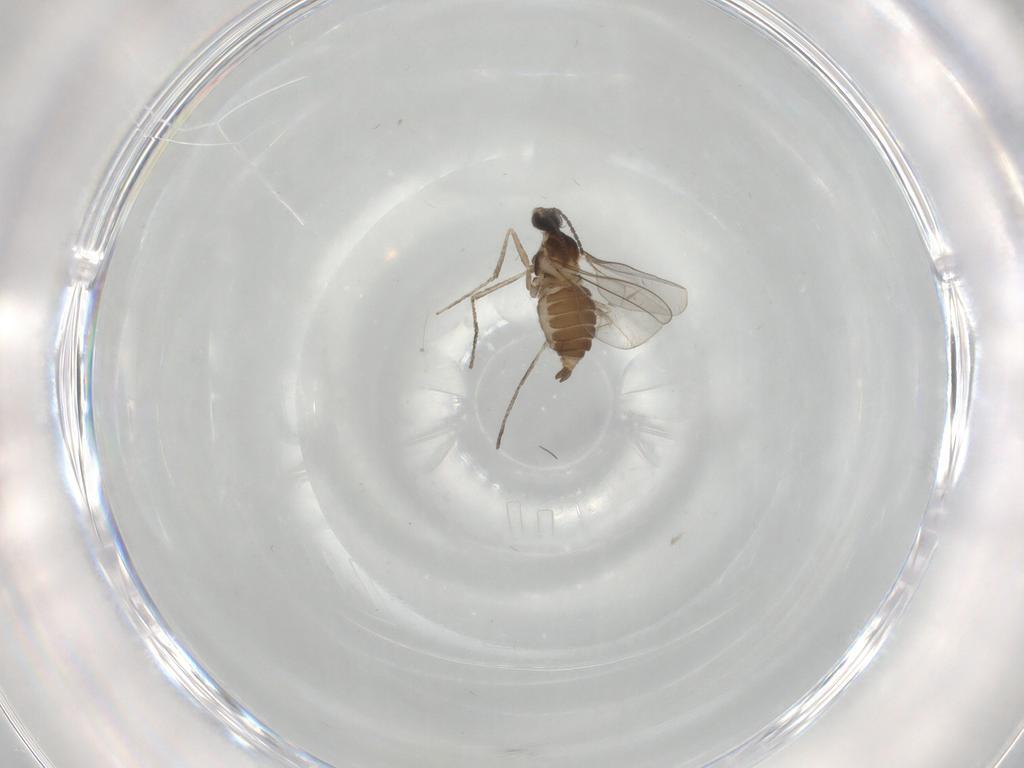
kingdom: Animalia
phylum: Arthropoda
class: Insecta
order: Diptera
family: Cecidomyiidae
